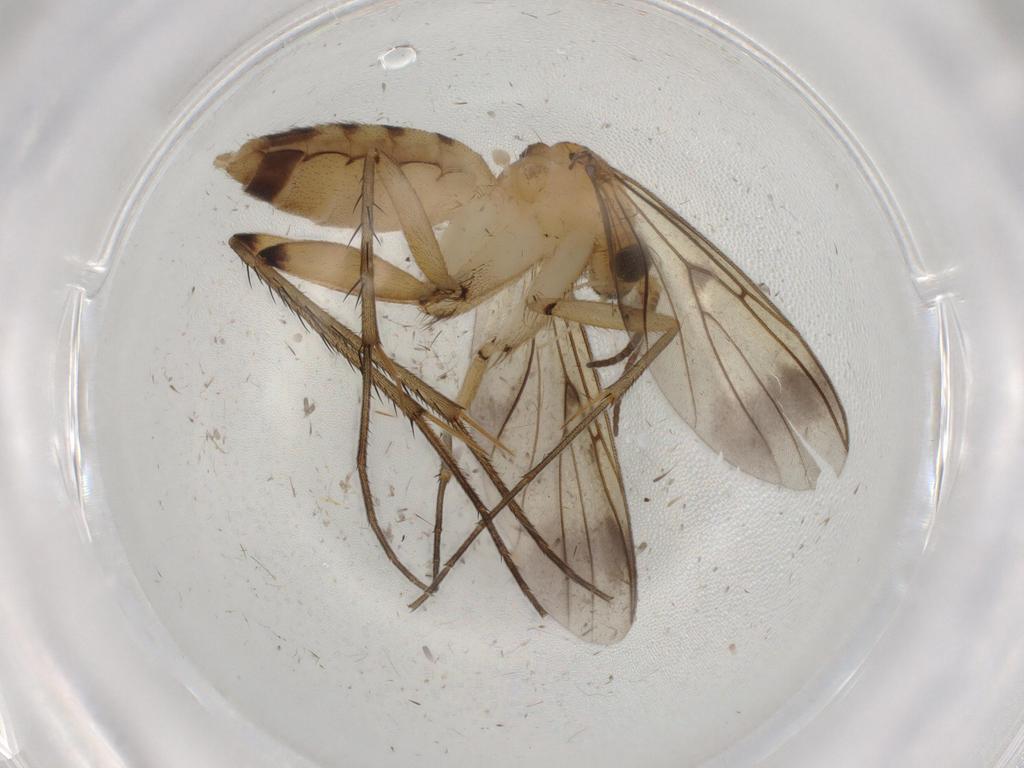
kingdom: Animalia
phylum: Arthropoda
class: Insecta
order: Diptera
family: Mycetophilidae
